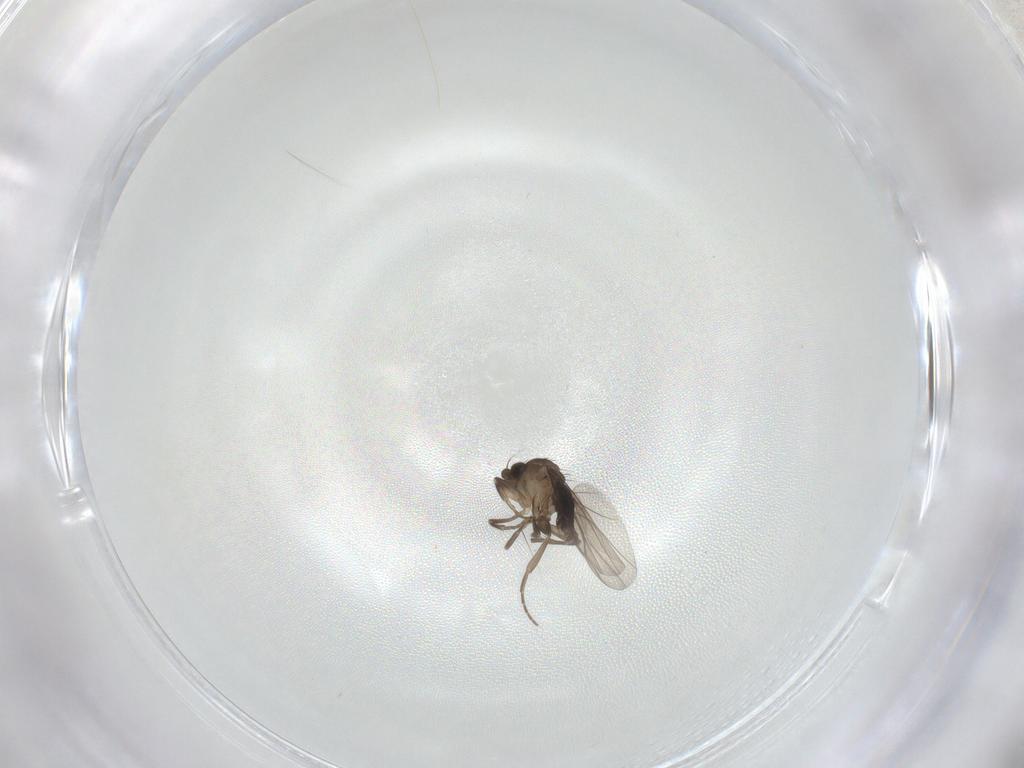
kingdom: Animalia
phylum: Arthropoda
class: Insecta
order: Diptera
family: Phoridae
